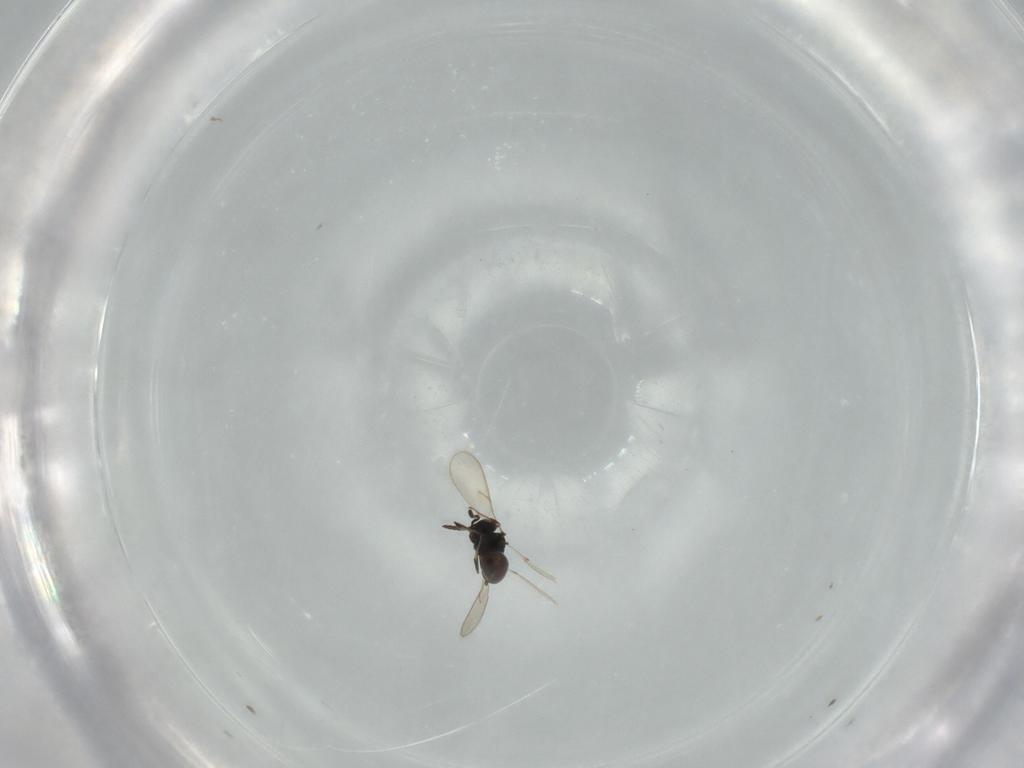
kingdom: Animalia
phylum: Arthropoda
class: Insecta
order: Hymenoptera
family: Scelionidae
